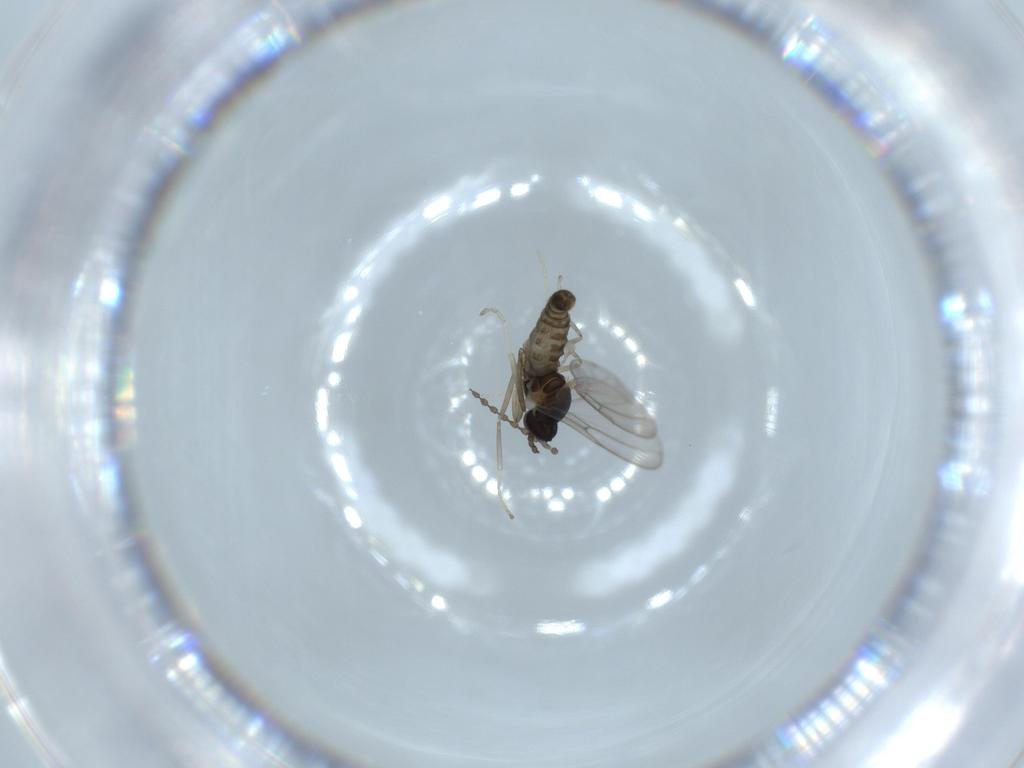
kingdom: Animalia
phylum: Arthropoda
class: Insecta
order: Diptera
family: Cecidomyiidae
